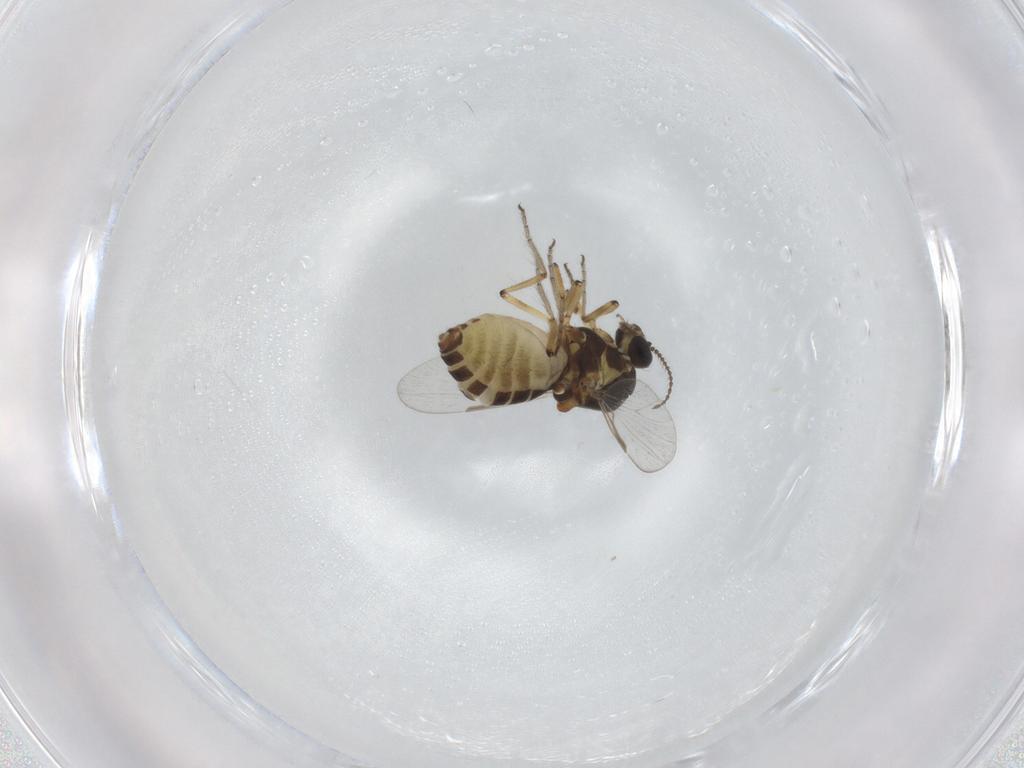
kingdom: Animalia
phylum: Arthropoda
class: Insecta
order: Diptera
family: Ceratopogonidae
